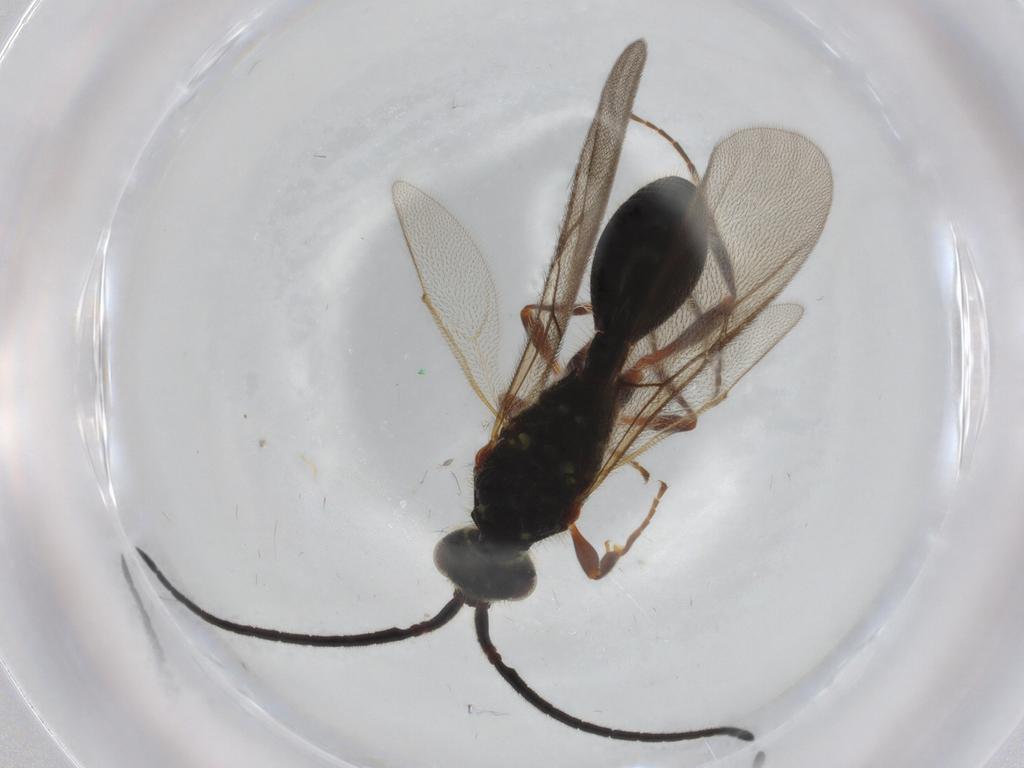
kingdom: Animalia
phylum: Arthropoda
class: Insecta
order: Hymenoptera
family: Diapriidae
